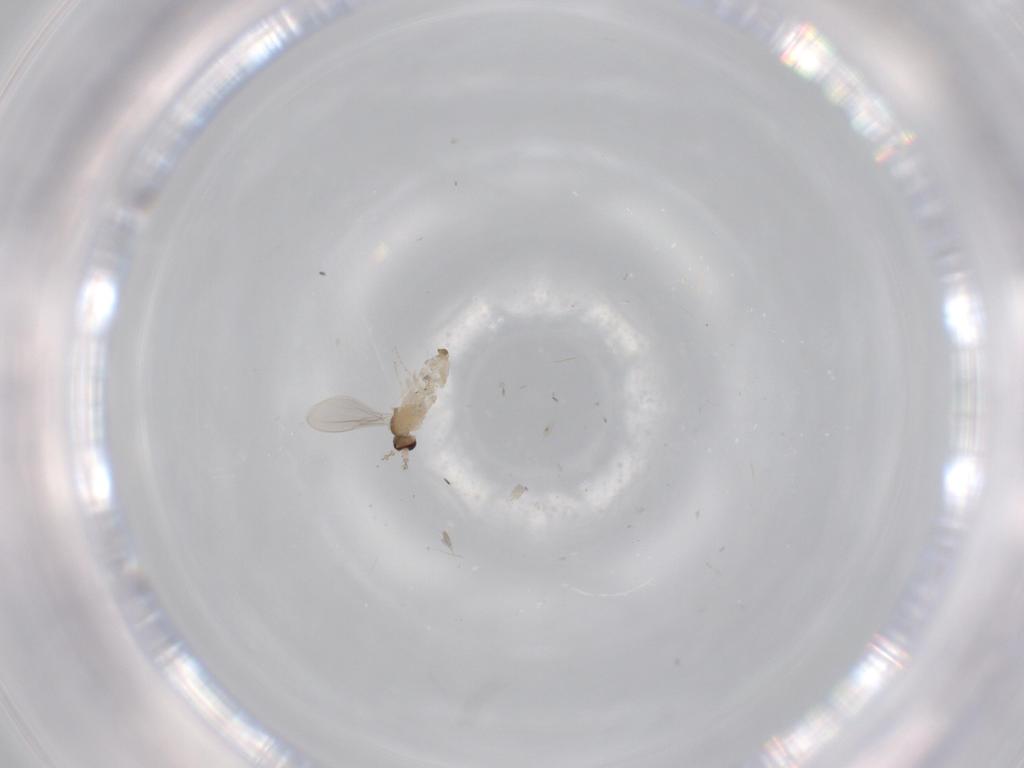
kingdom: Animalia
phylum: Arthropoda
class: Insecta
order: Diptera
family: Cecidomyiidae
